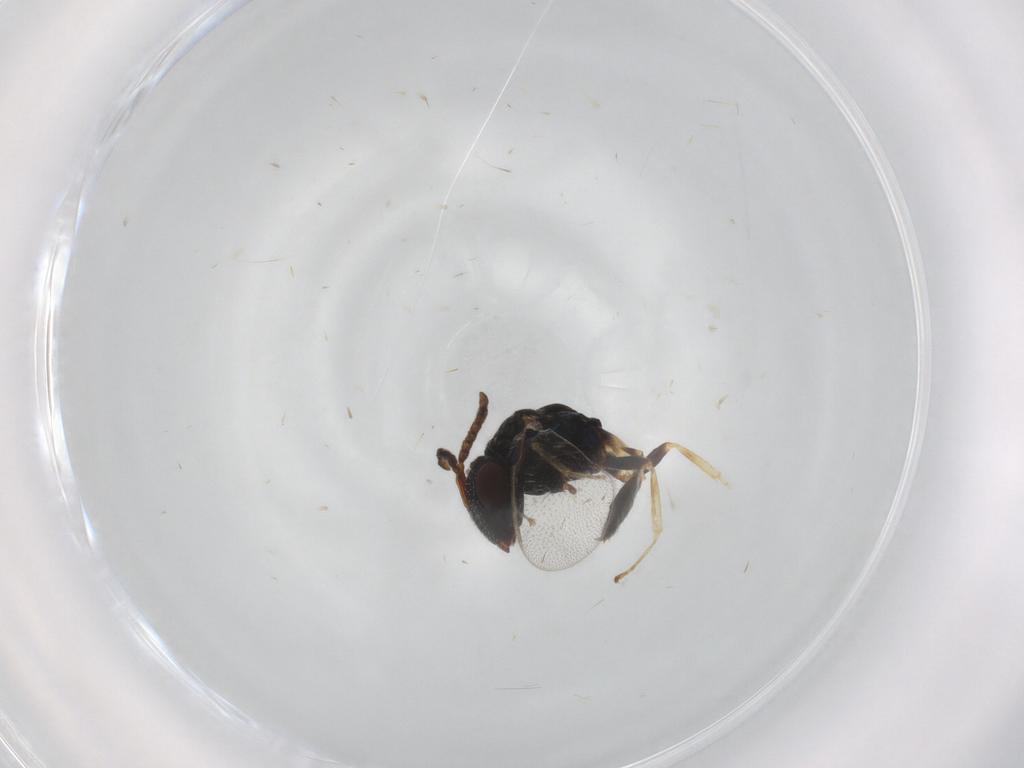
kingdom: Animalia
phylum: Arthropoda
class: Insecta
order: Hymenoptera
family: Pteromalidae
